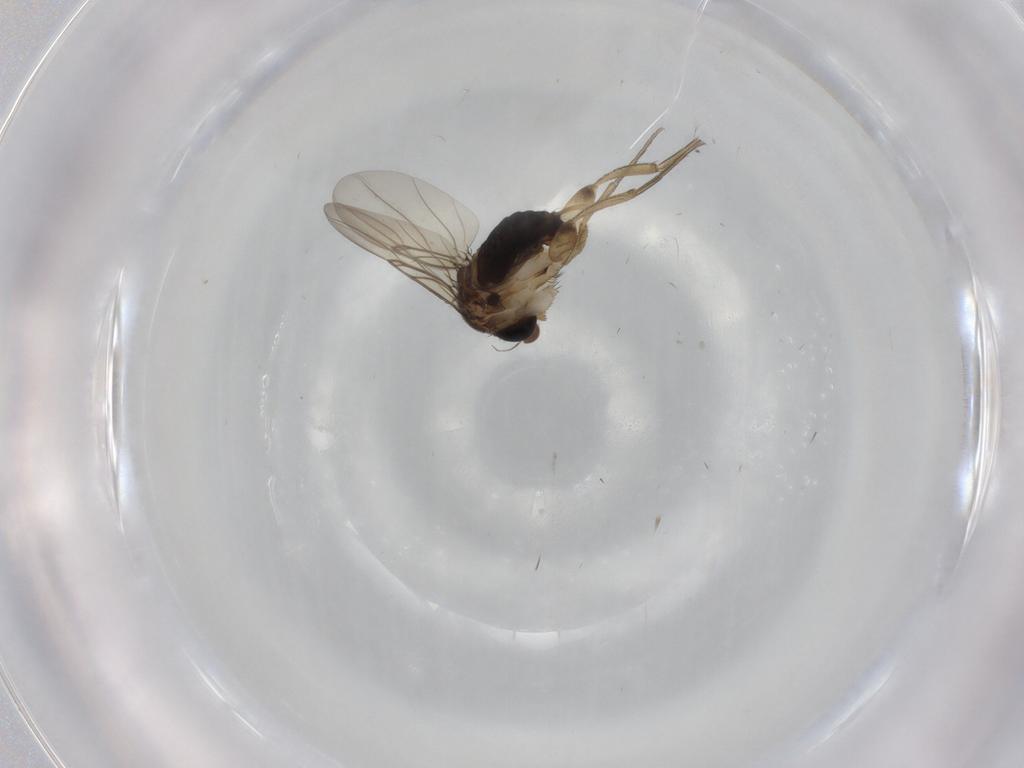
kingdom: Animalia
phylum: Arthropoda
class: Insecta
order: Diptera
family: Phoridae
